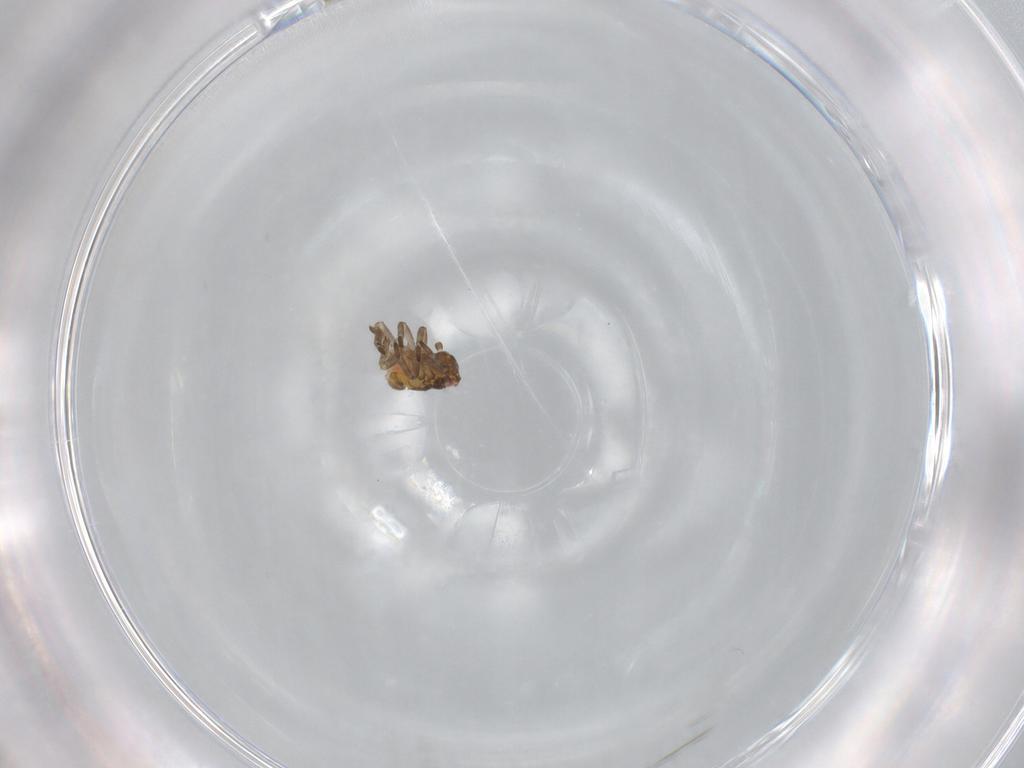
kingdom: Animalia
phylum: Arthropoda
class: Insecta
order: Hemiptera
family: Ricaniidae
